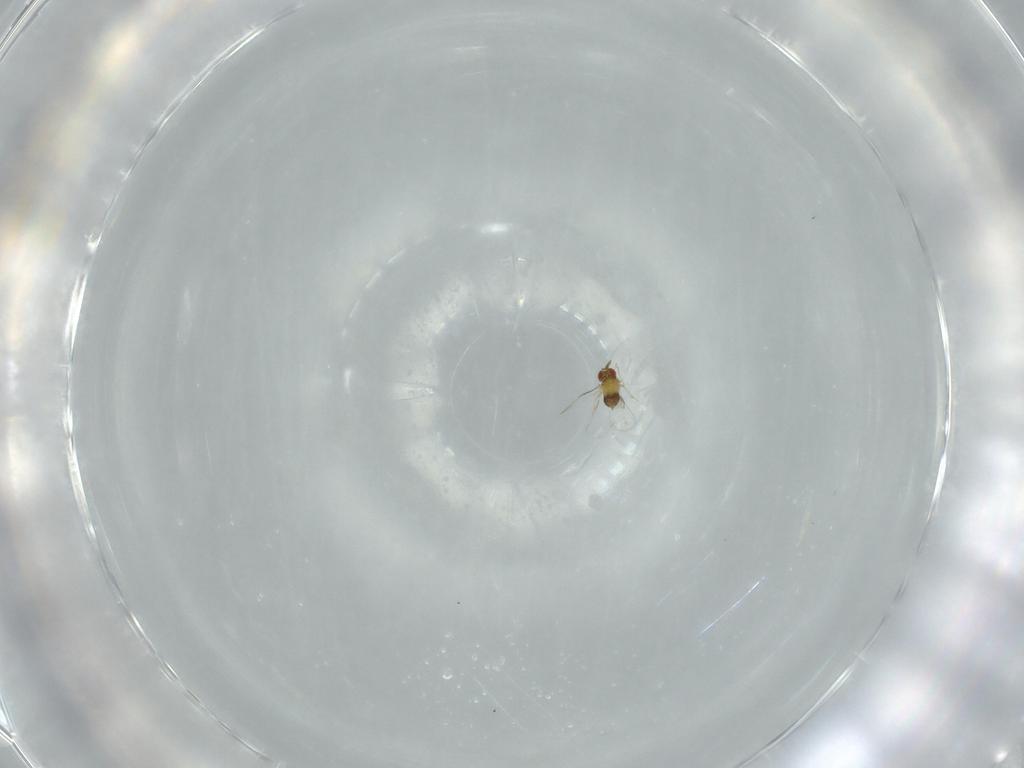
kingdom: Animalia
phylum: Arthropoda
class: Insecta
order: Hymenoptera
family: Trichogrammatidae
